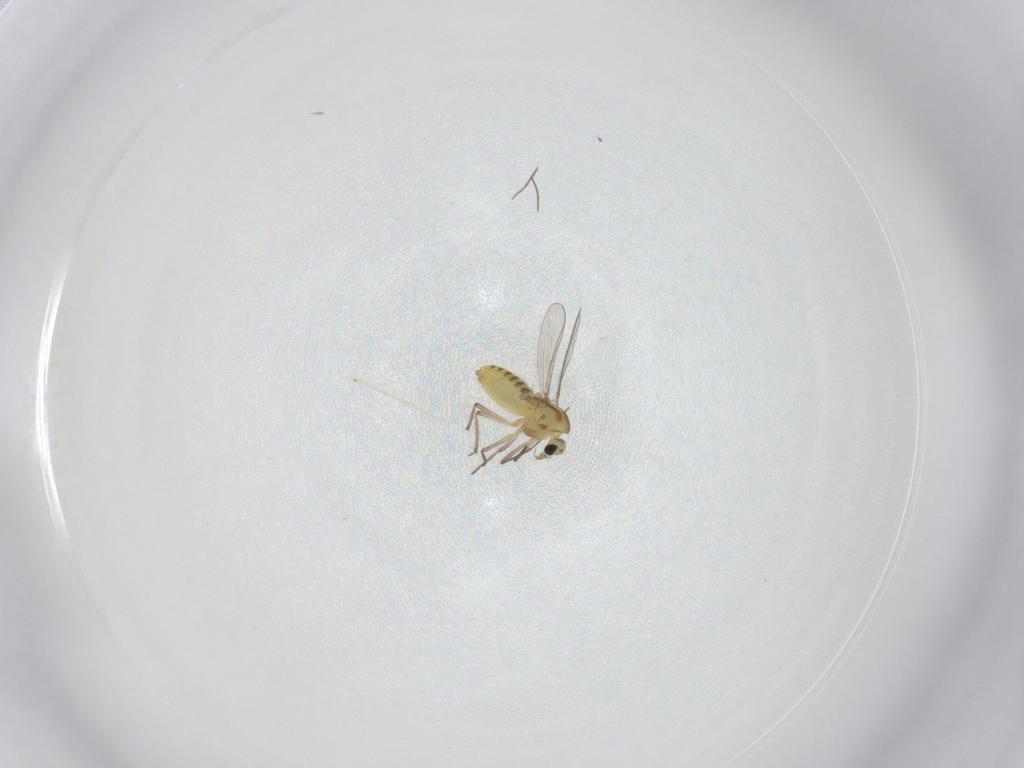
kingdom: Animalia
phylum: Arthropoda
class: Insecta
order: Diptera
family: Chironomidae
